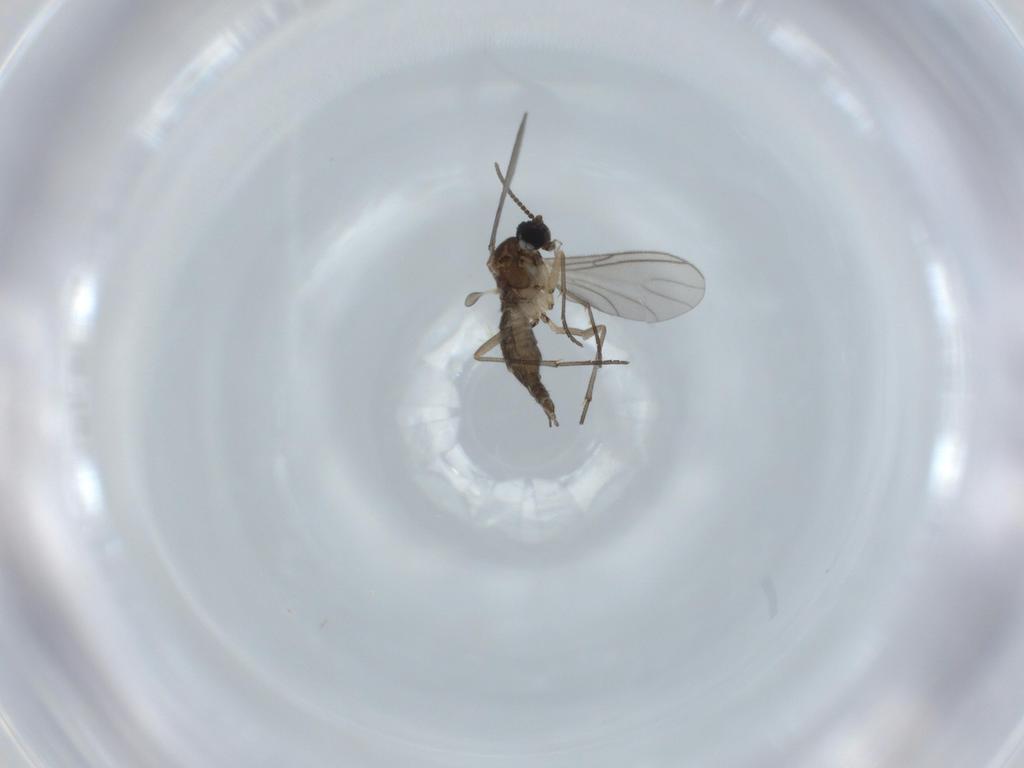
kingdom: Animalia
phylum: Arthropoda
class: Insecta
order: Diptera
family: Sciaridae
